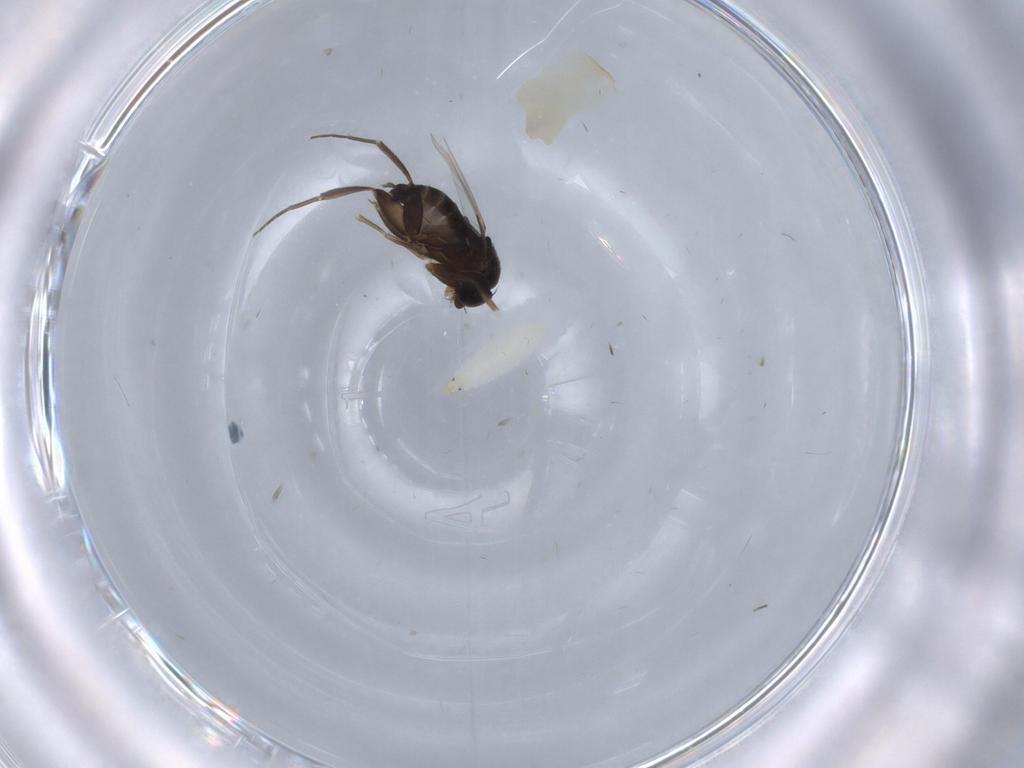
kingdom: Animalia
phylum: Arthropoda
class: Insecta
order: Diptera
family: Phoridae
